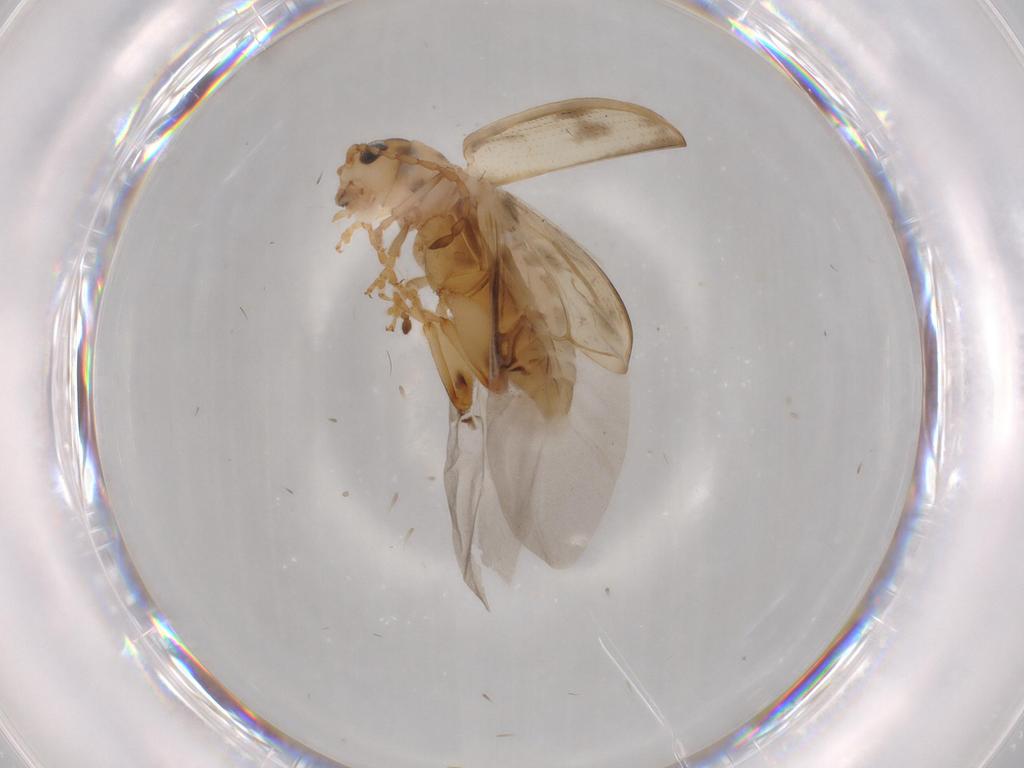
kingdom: Animalia
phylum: Arthropoda
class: Insecta
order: Coleoptera
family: Chrysomelidae
